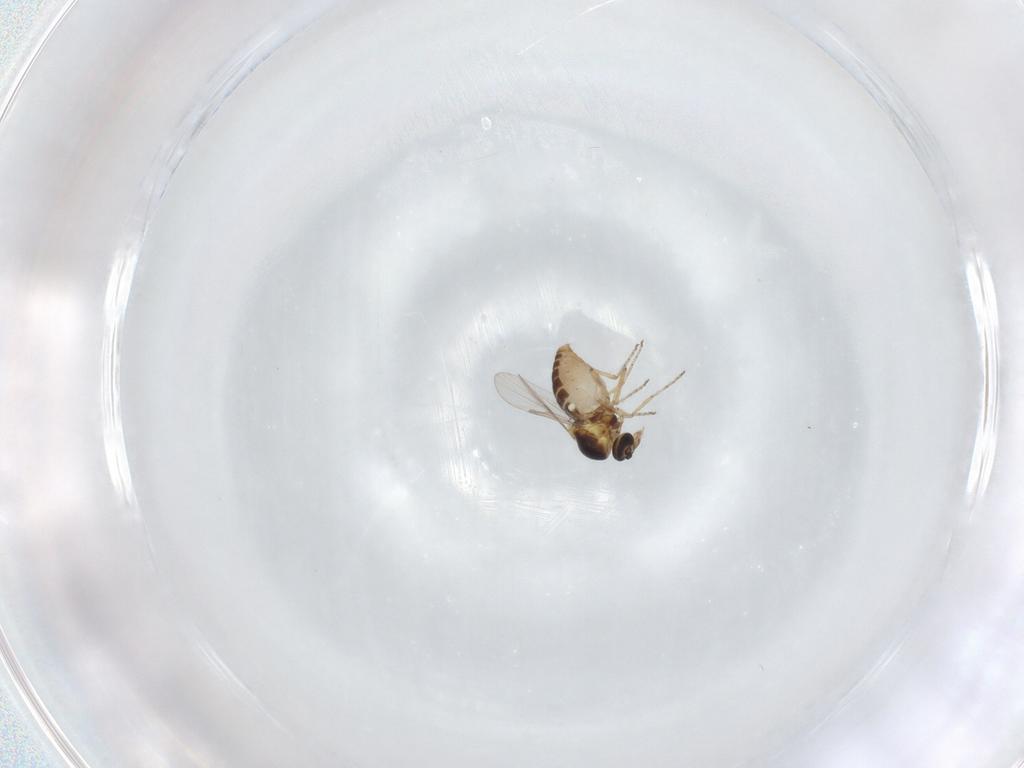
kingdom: Animalia
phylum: Arthropoda
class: Insecta
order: Diptera
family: Ceratopogonidae
